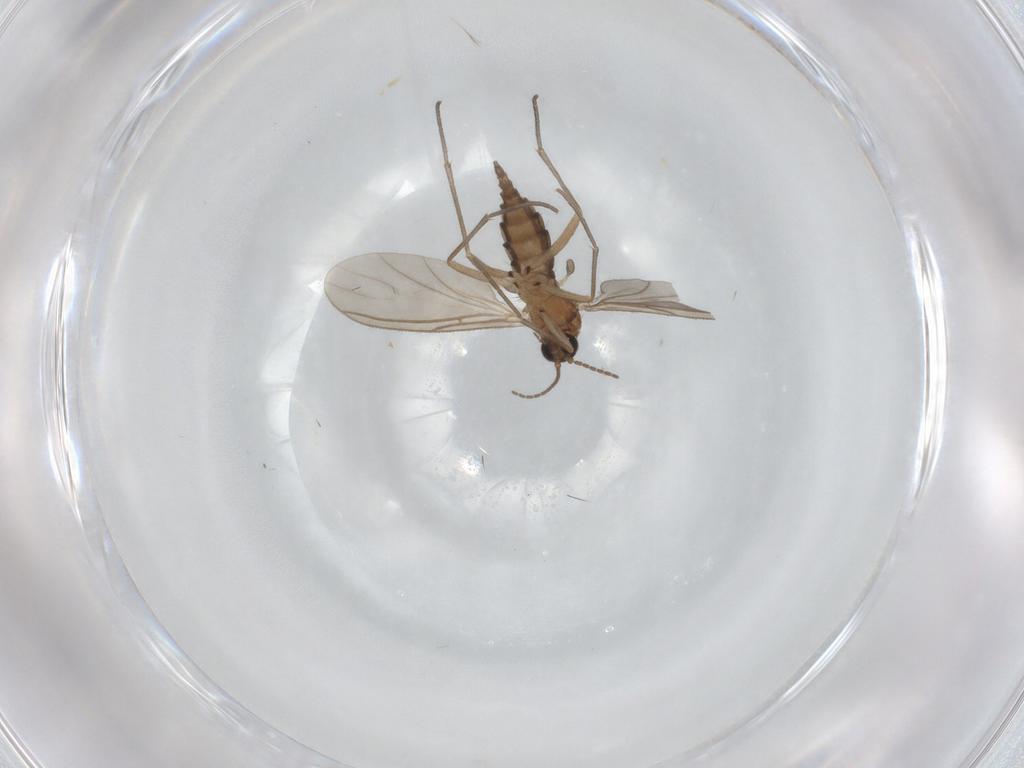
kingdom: Animalia
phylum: Arthropoda
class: Insecta
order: Diptera
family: Sciaridae
